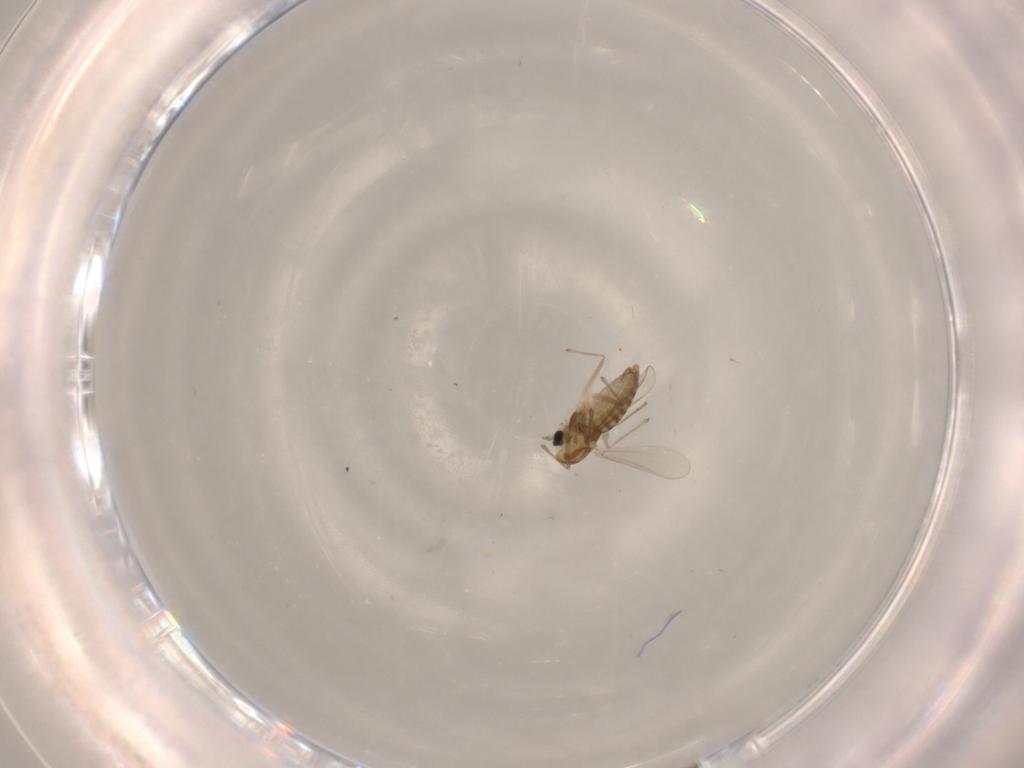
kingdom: Animalia
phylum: Arthropoda
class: Insecta
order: Diptera
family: Chironomidae
